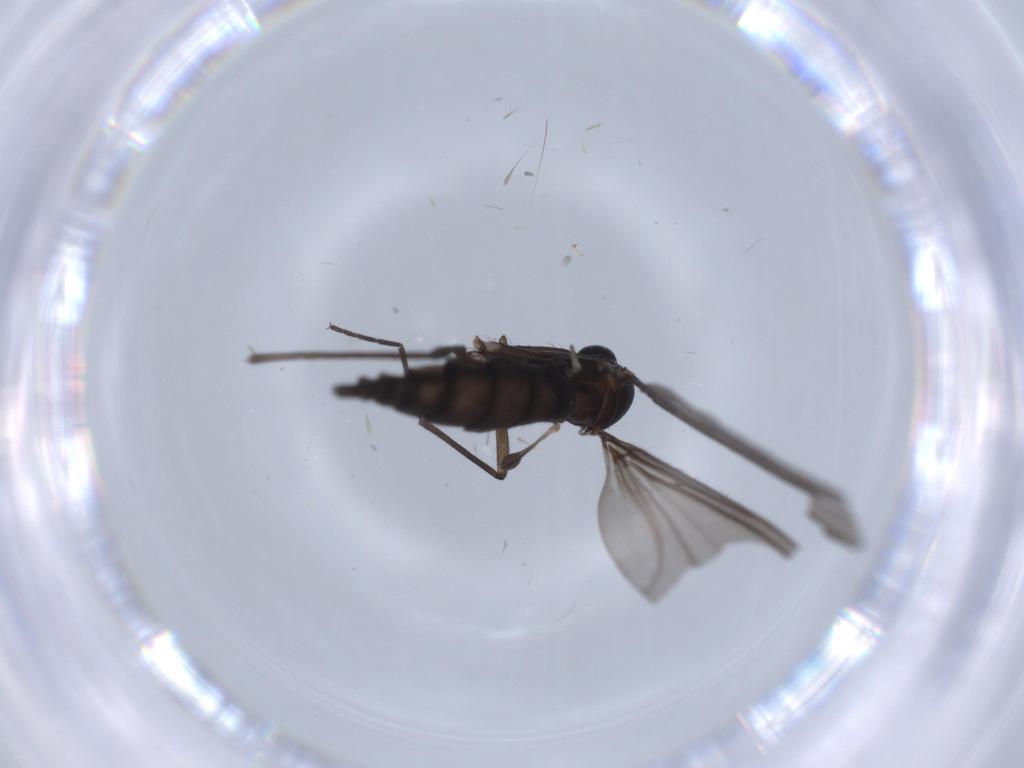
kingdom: Animalia
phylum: Arthropoda
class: Insecta
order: Diptera
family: Sciaridae
